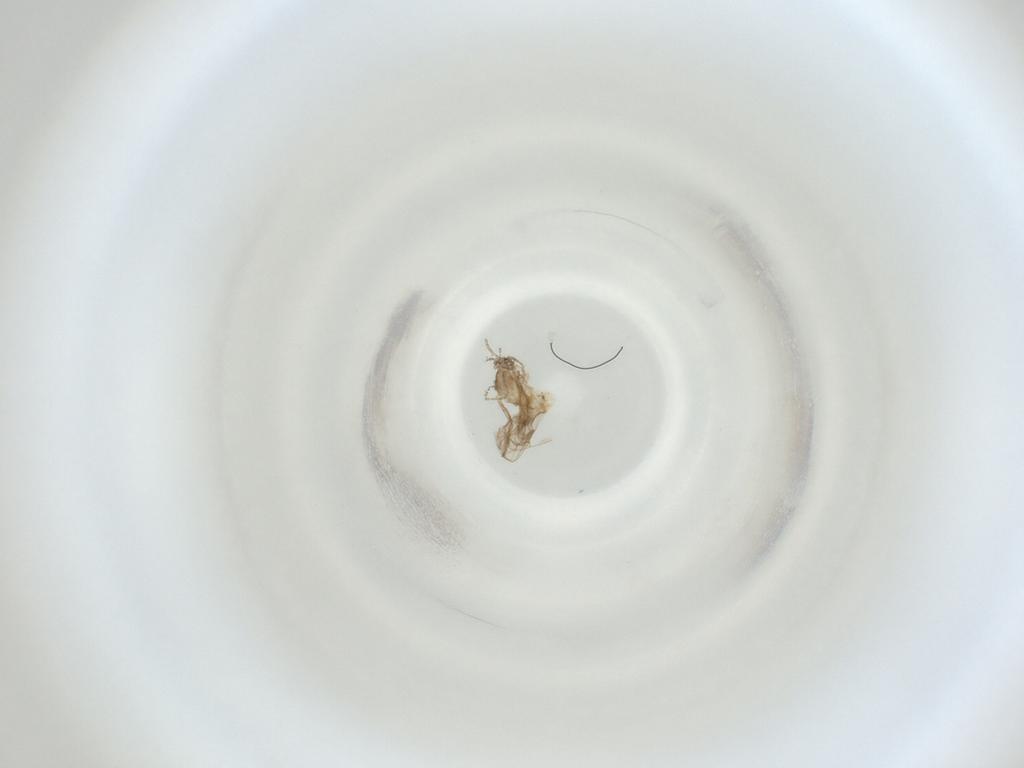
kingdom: Animalia
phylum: Arthropoda
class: Insecta
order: Diptera
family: Cecidomyiidae
